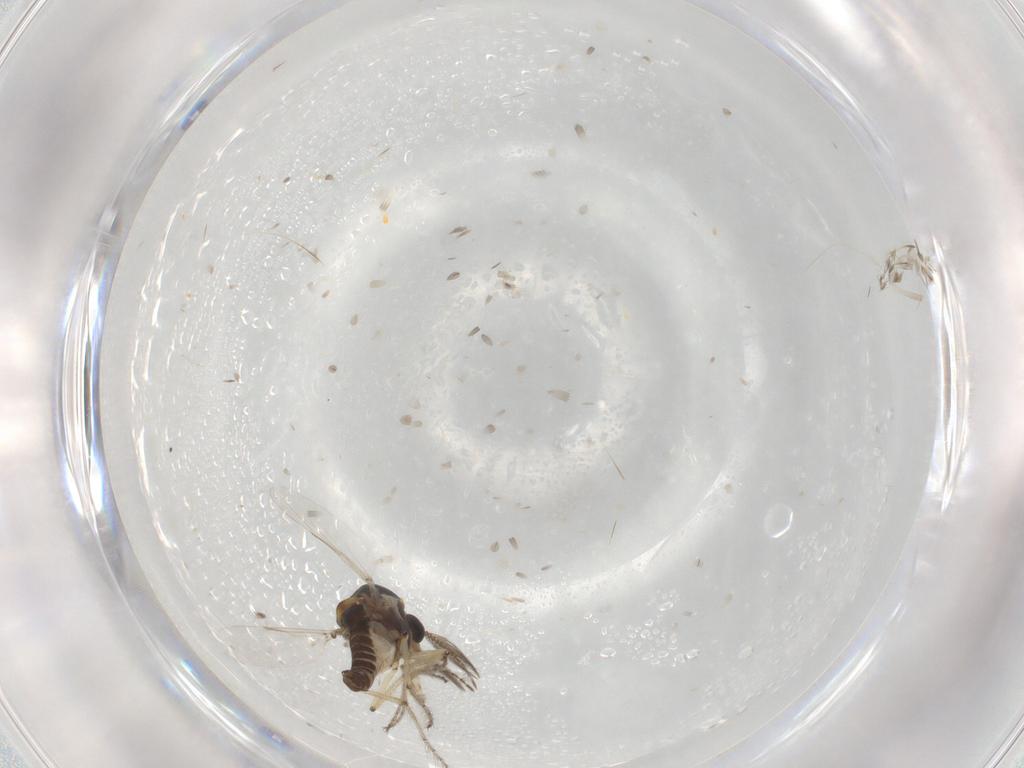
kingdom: Animalia
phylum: Arthropoda
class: Insecta
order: Diptera
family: Ceratopogonidae
